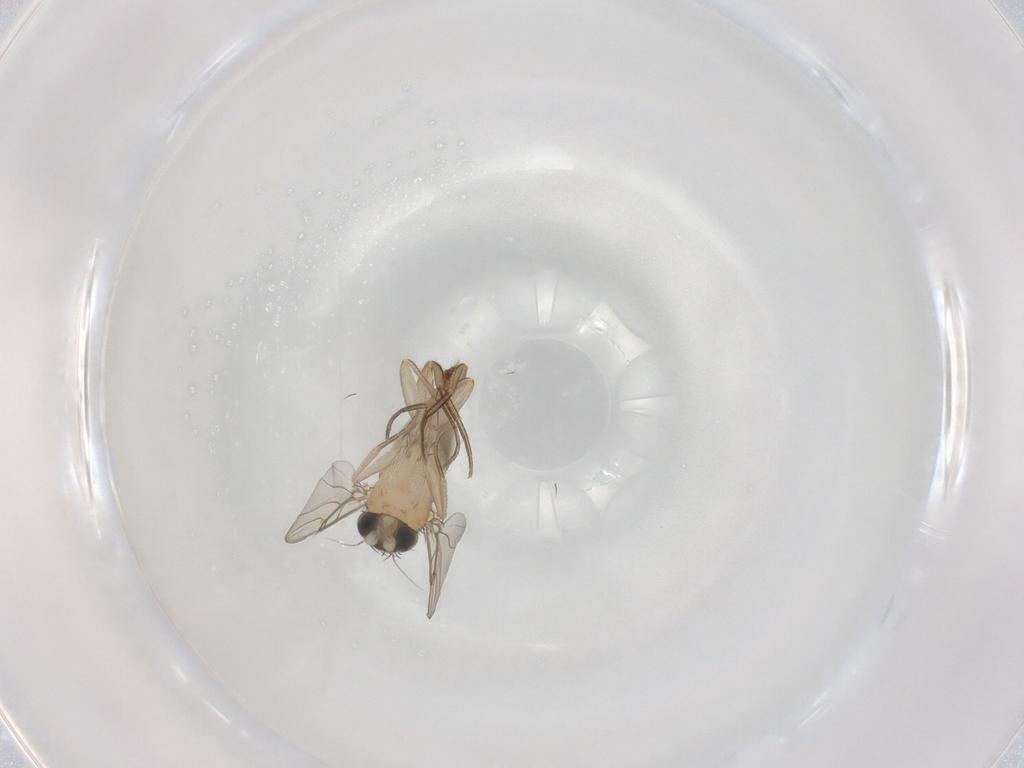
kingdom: Animalia
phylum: Arthropoda
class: Insecta
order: Diptera
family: Phoridae
